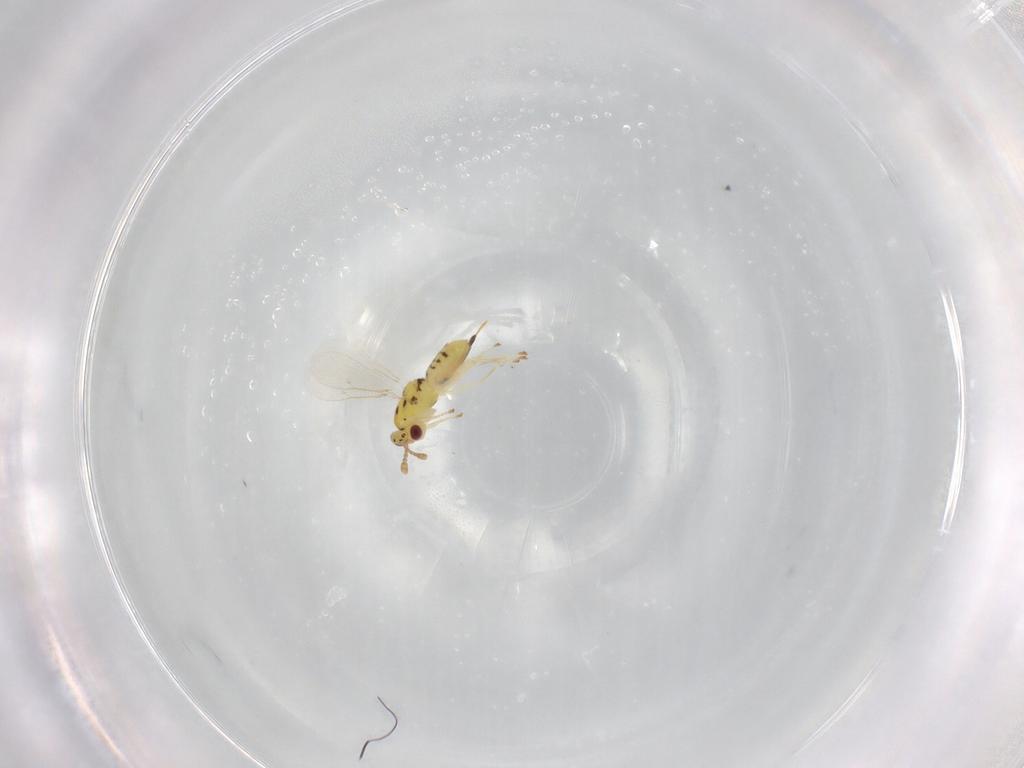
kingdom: Animalia
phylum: Arthropoda
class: Insecta
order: Hymenoptera
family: Eulophidae
